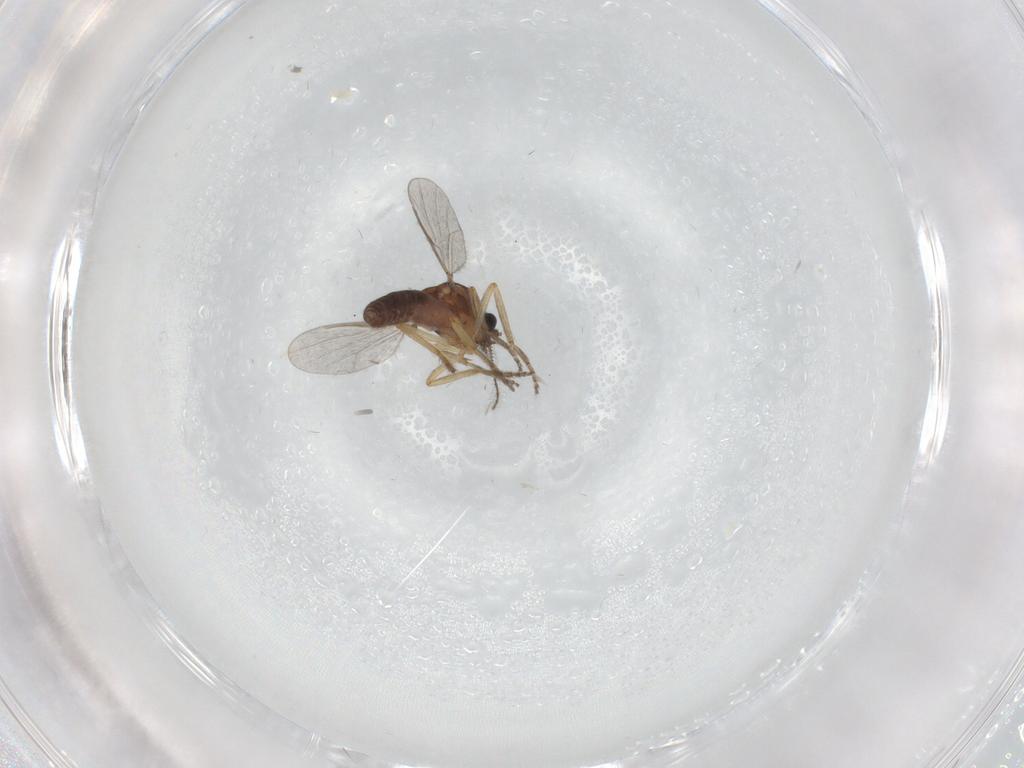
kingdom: Animalia
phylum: Arthropoda
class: Insecta
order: Diptera
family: Ceratopogonidae
